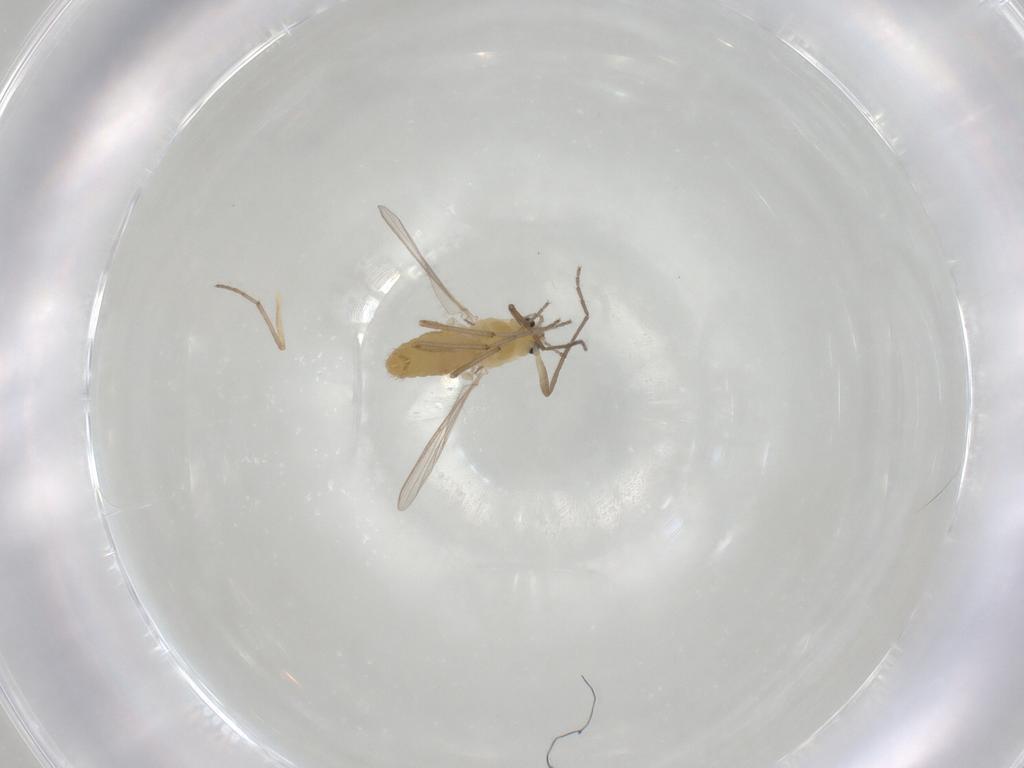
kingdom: Animalia
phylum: Arthropoda
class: Insecta
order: Diptera
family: Chironomidae
